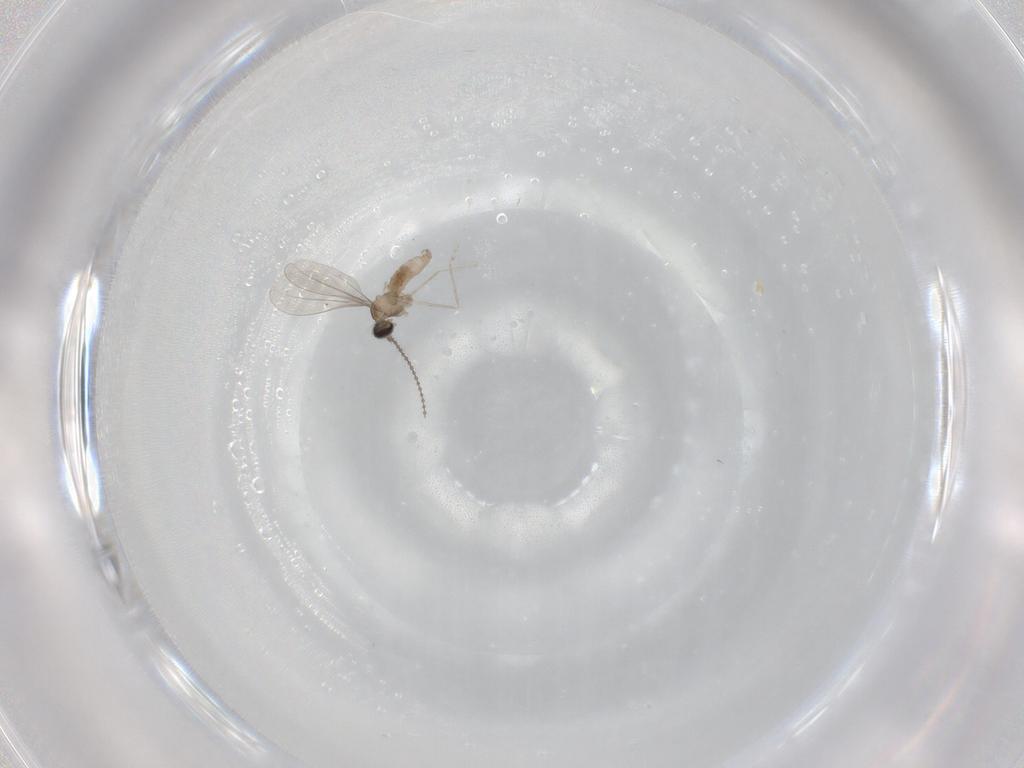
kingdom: Animalia
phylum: Arthropoda
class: Insecta
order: Diptera
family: Cecidomyiidae
